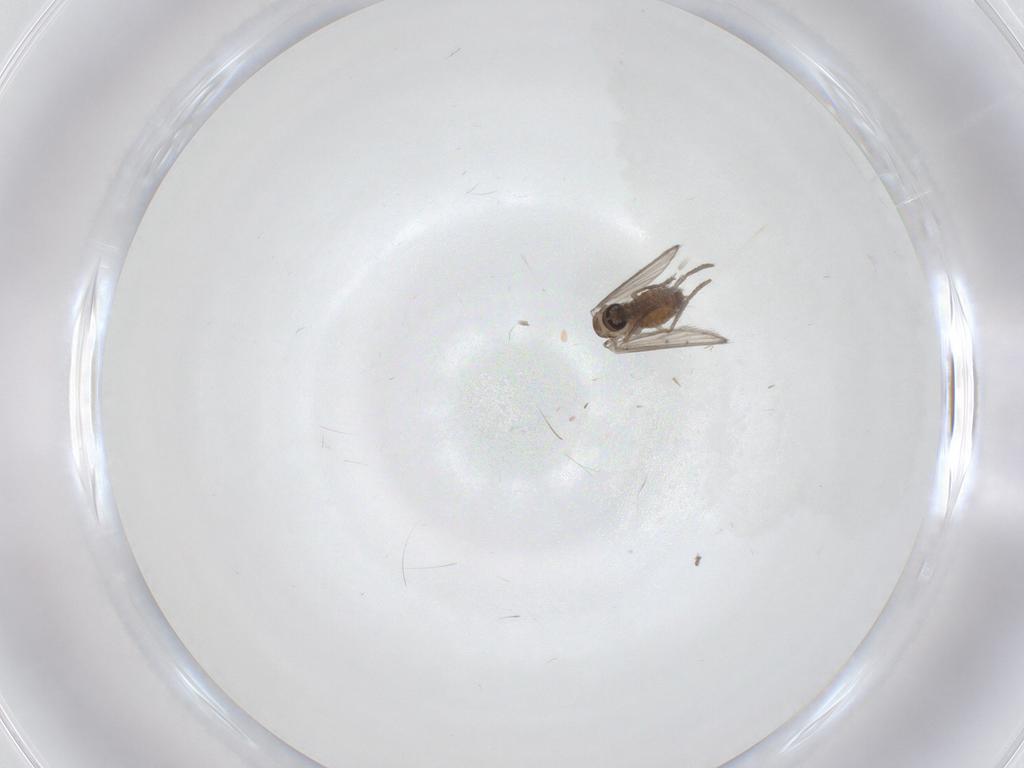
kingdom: Animalia
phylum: Arthropoda
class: Insecta
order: Diptera
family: Psychodidae
